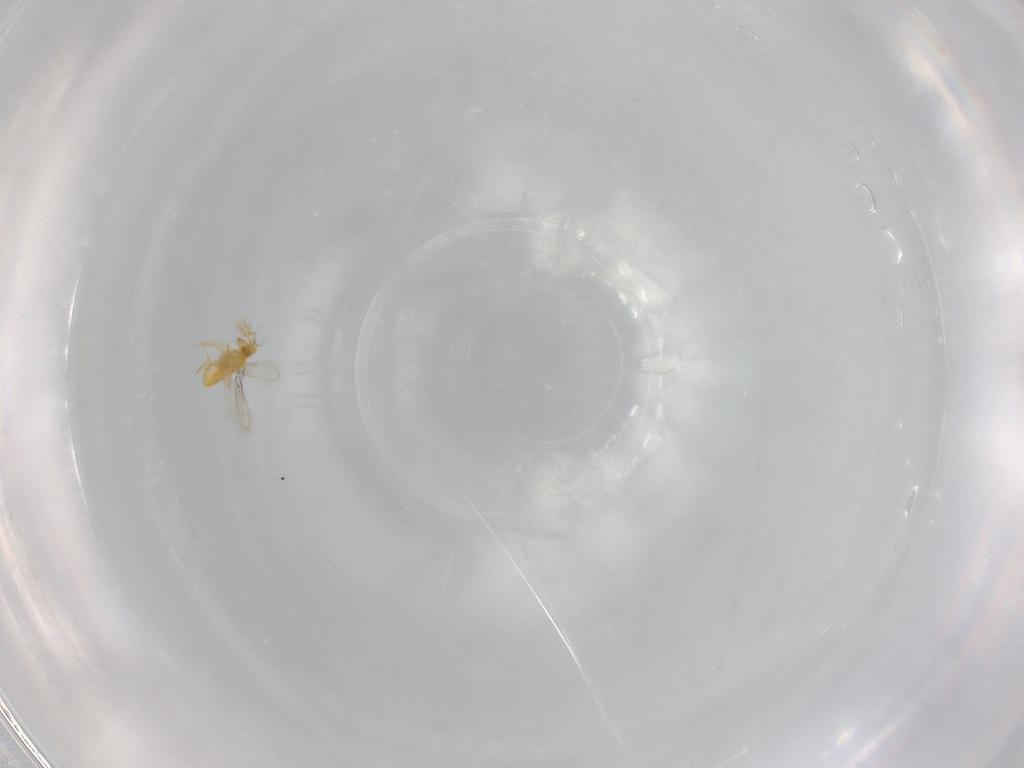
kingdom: Animalia
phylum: Arthropoda
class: Insecta
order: Hymenoptera
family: Aphelinidae
